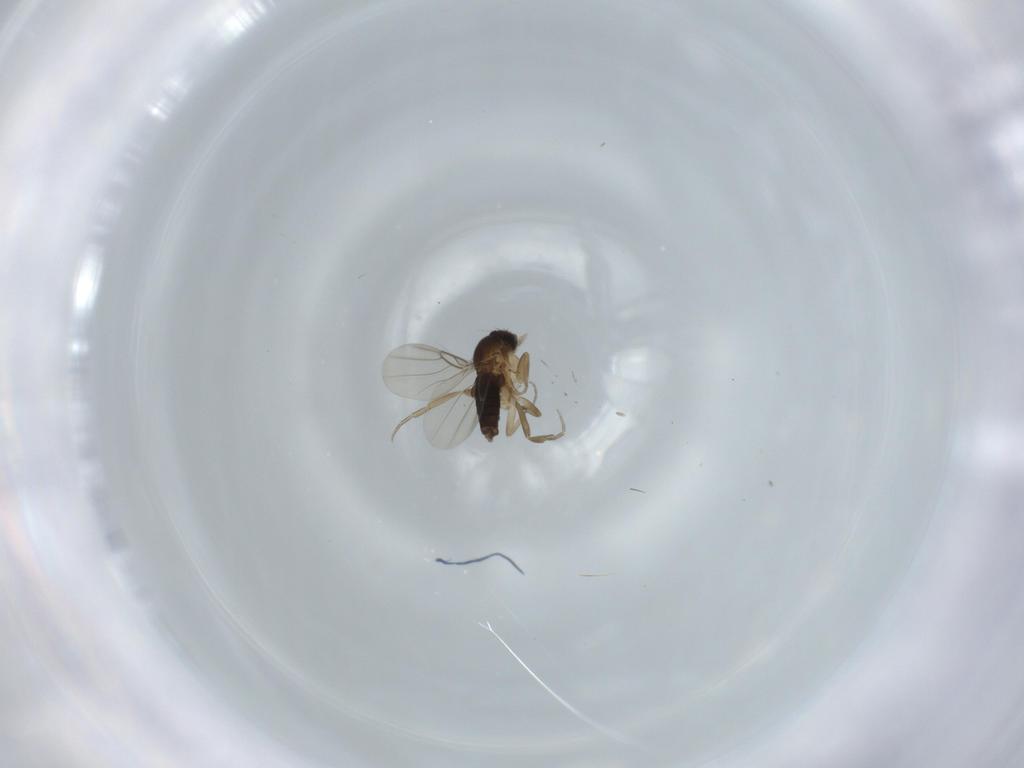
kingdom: Animalia
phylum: Arthropoda
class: Insecta
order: Diptera
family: Phoridae
